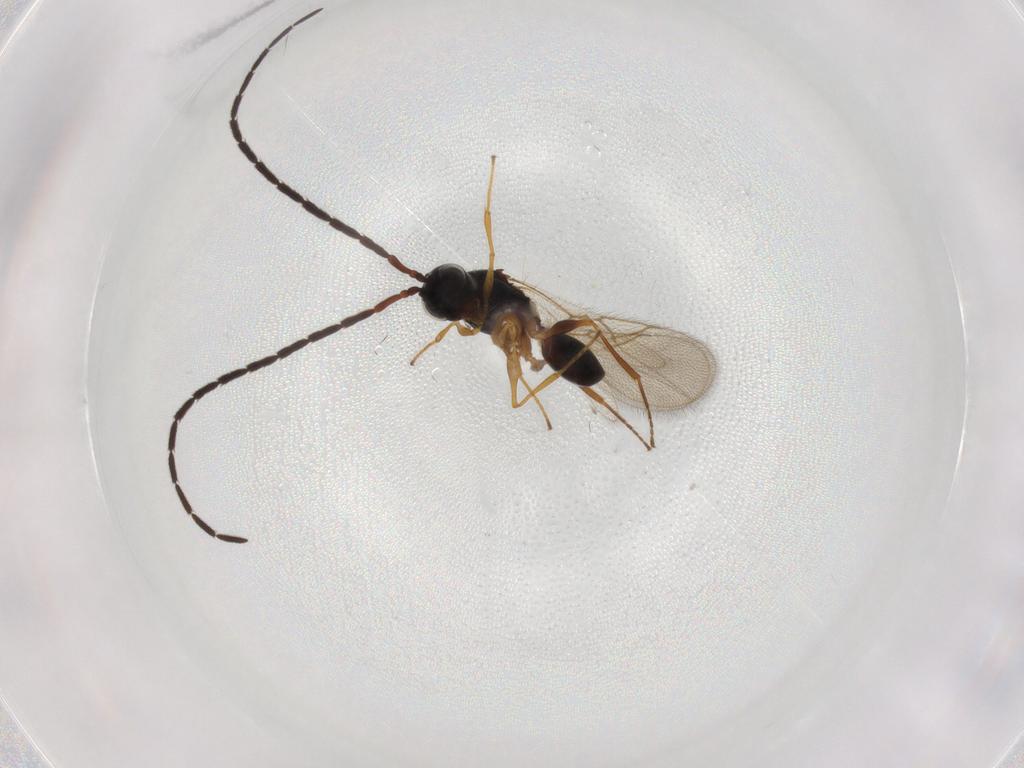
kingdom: Animalia
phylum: Arthropoda
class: Insecta
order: Hymenoptera
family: Figitidae
